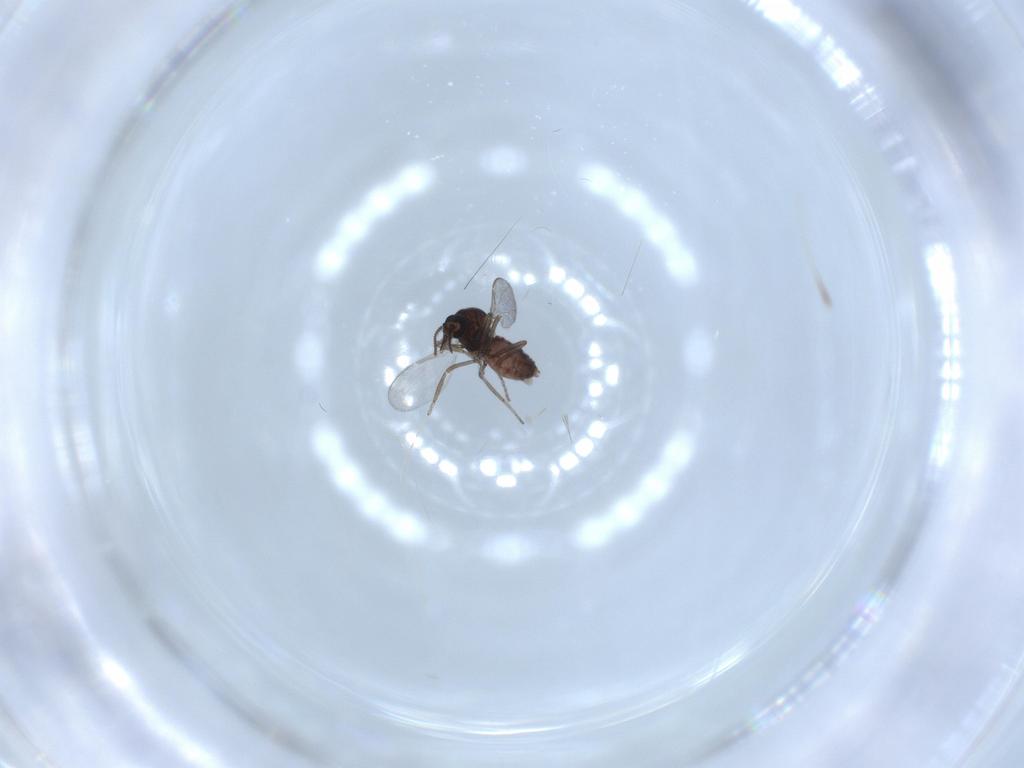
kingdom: Animalia
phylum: Arthropoda
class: Insecta
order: Diptera
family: Ceratopogonidae
